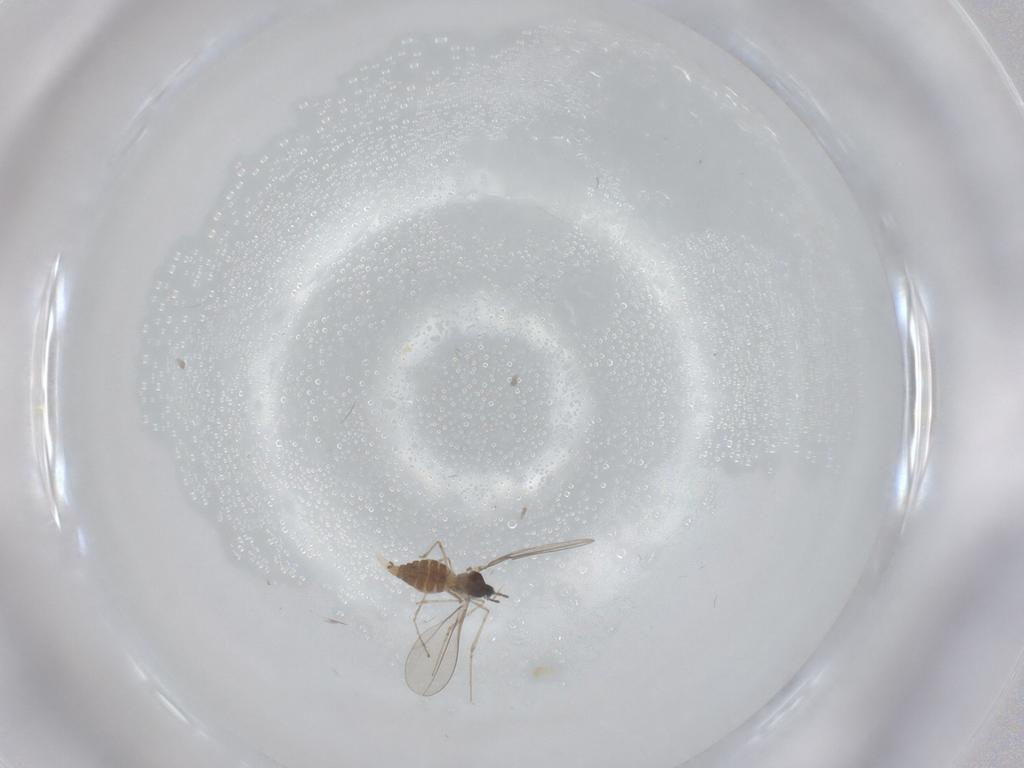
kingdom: Animalia
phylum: Arthropoda
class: Insecta
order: Diptera
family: Cecidomyiidae
